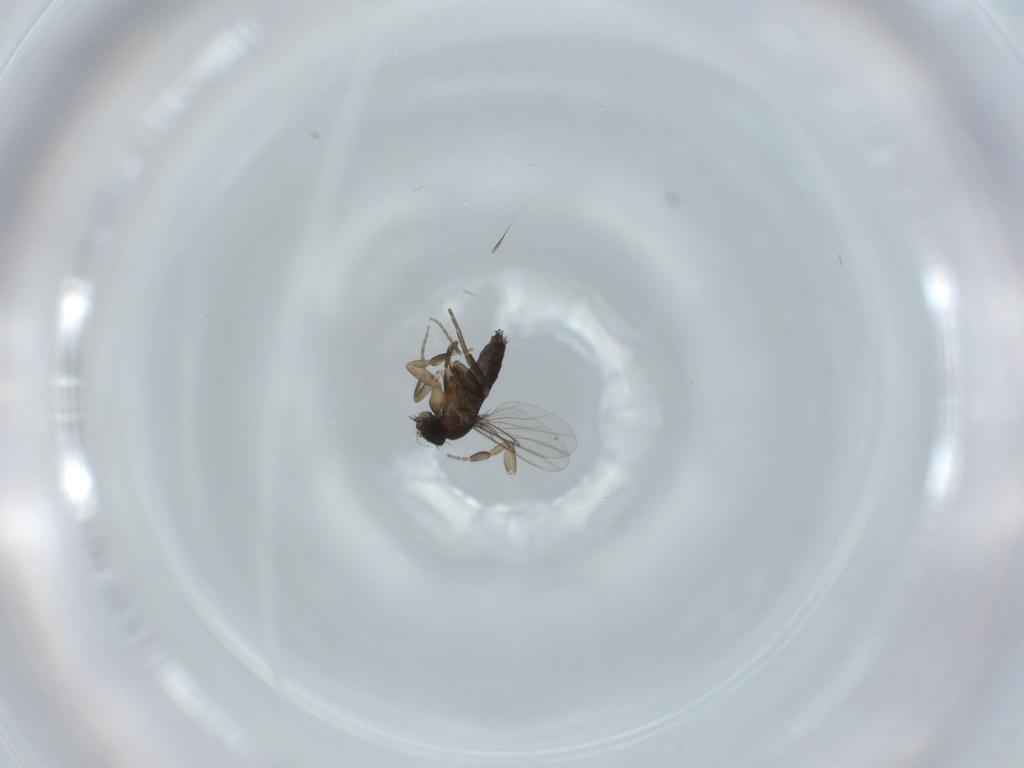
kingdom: Animalia
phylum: Arthropoda
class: Insecta
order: Diptera
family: Phoridae
